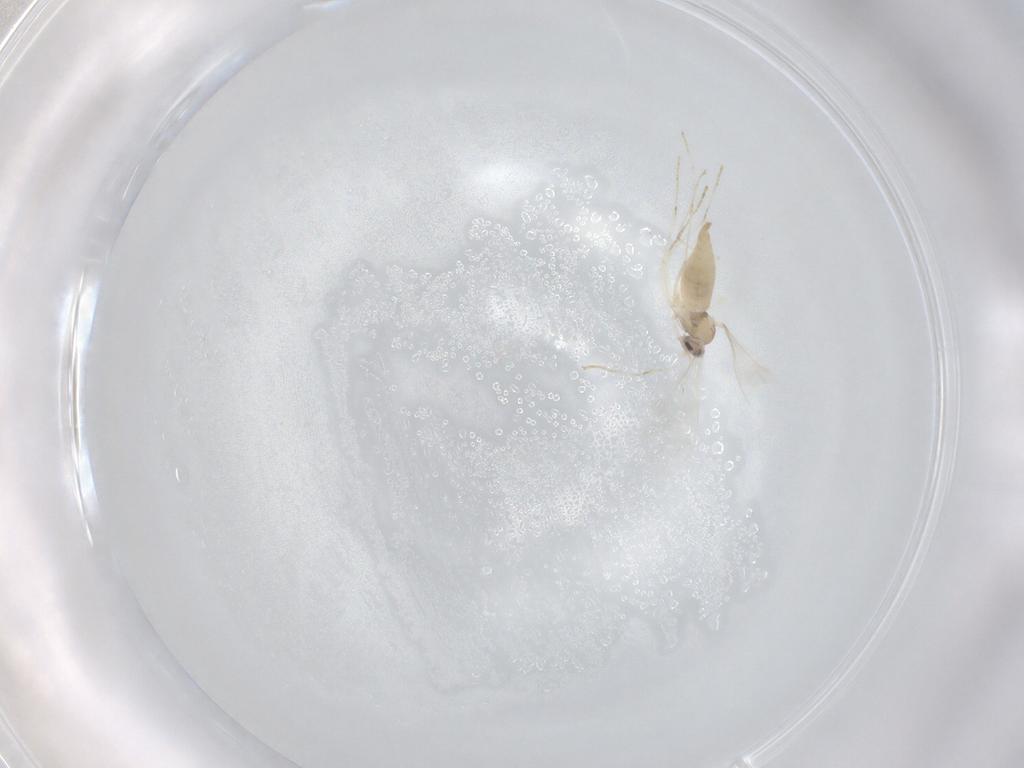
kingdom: Animalia
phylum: Arthropoda
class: Insecta
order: Diptera
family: Cecidomyiidae
